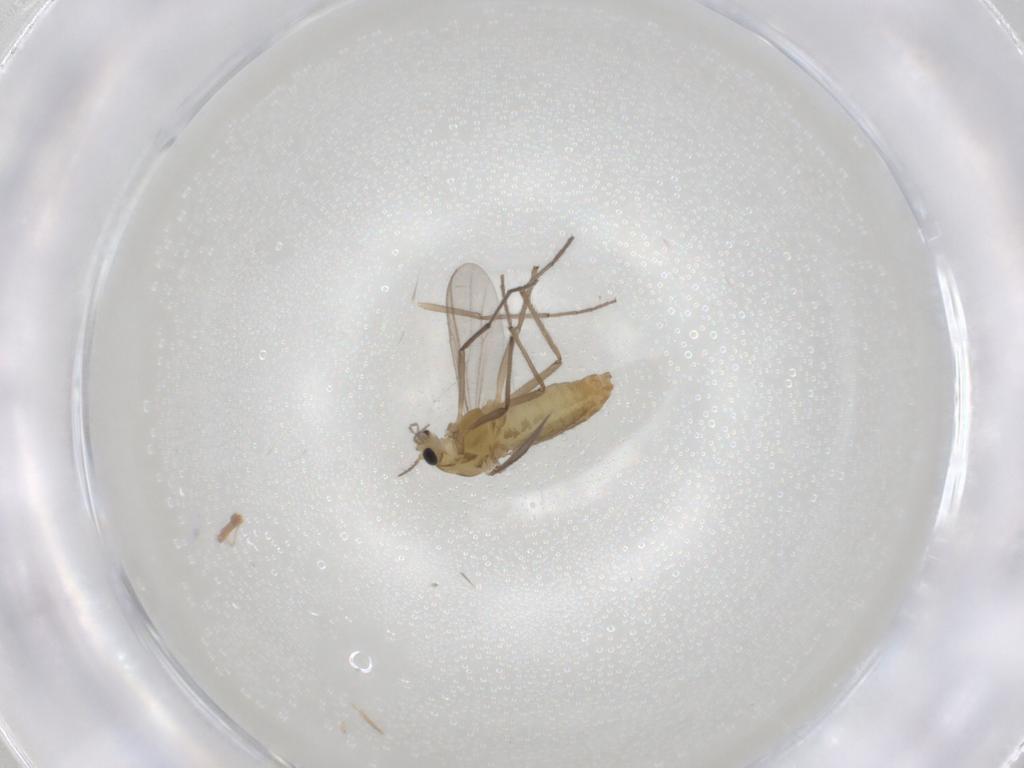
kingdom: Animalia
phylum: Arthropoda
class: Insecta
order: Diptera
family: Chironomidae
